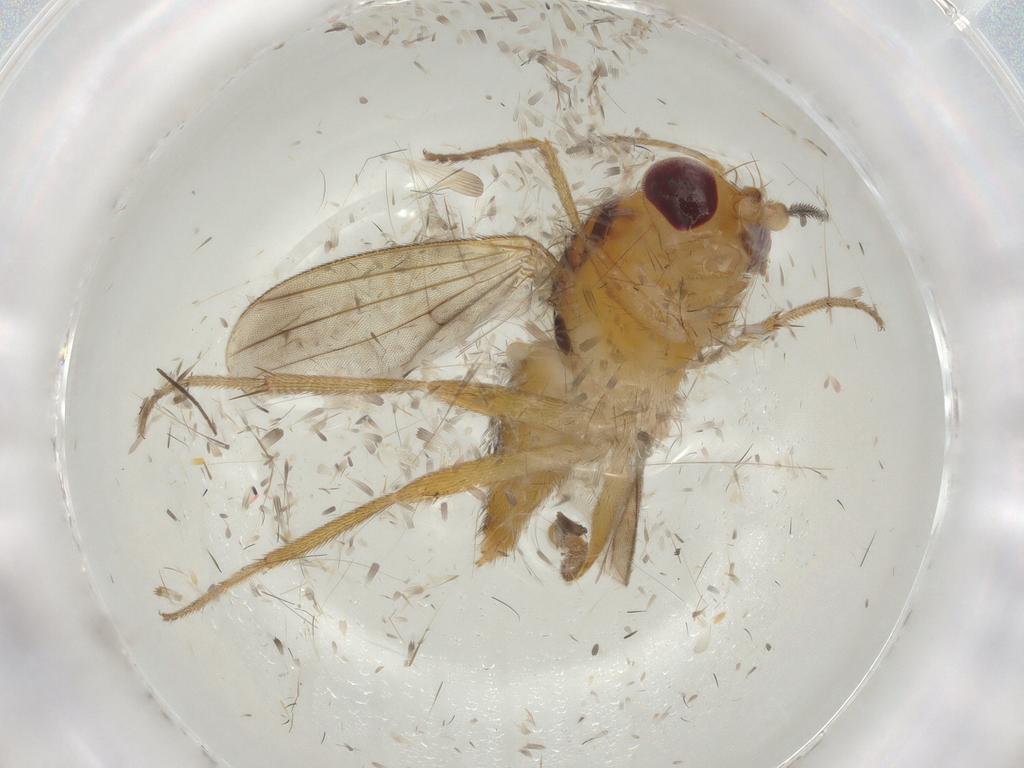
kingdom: Animalia
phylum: Arthropoda
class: Insecta
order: Diptera
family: Clusiidae
